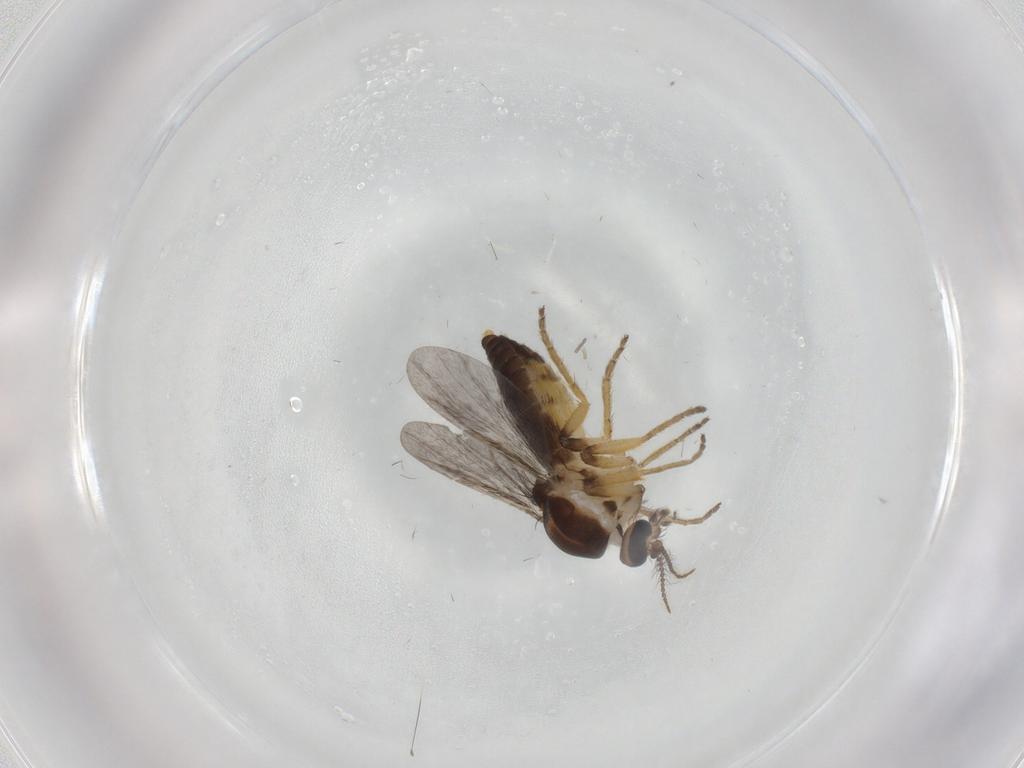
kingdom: Animalia
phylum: Arthropoda
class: Insecta
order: Diptera
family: Ceratopogonidae
